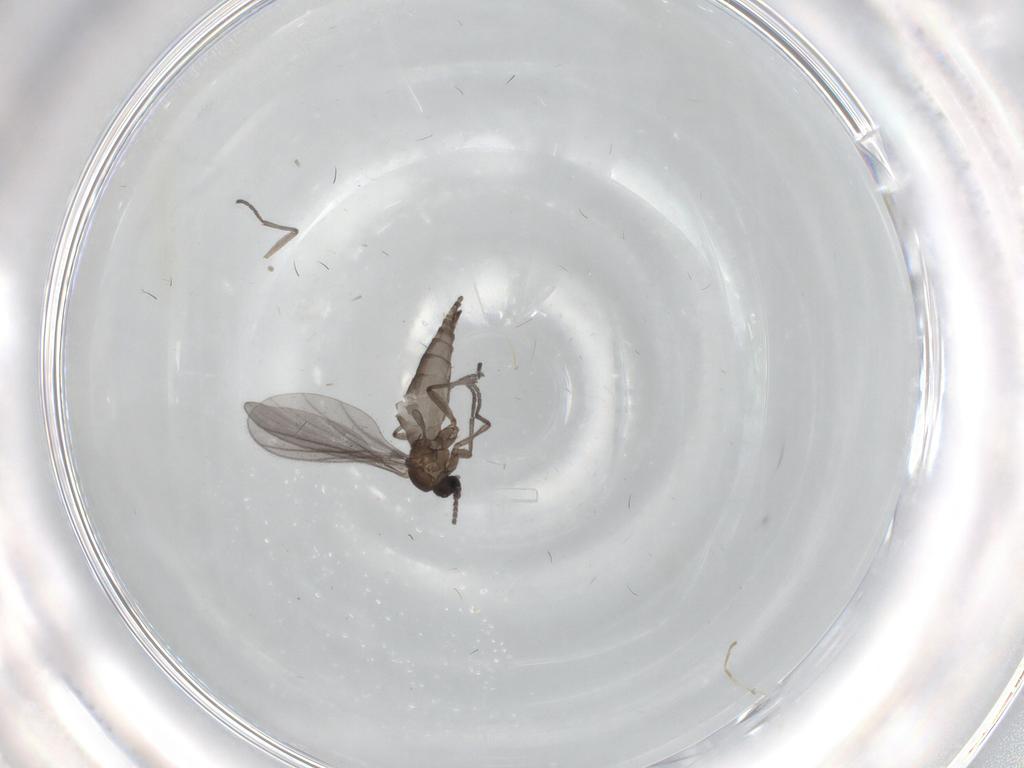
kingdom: Animalia
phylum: Arthropoda
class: Insecta
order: Diptera
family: Sciaridae
